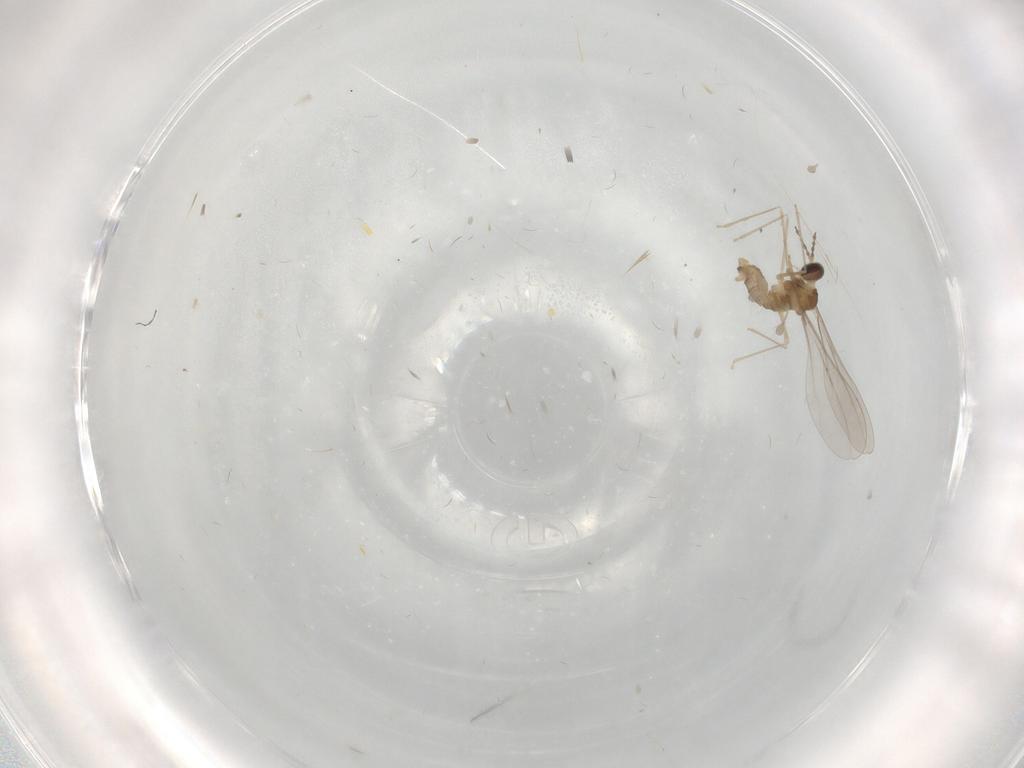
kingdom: Animalia
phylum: Arthropoda
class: Insecta
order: Diptera
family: Cecidomyiidae
